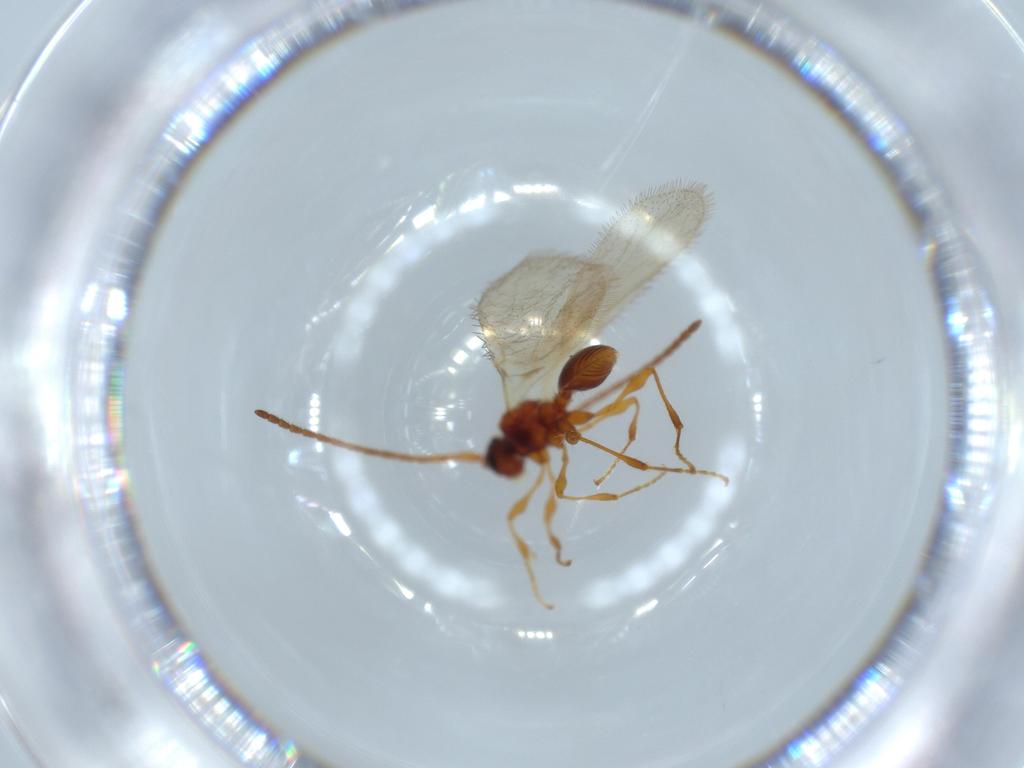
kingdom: Animalia
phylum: Arthropoda
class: Insecta
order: Hymenoptera
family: Diapriidae
